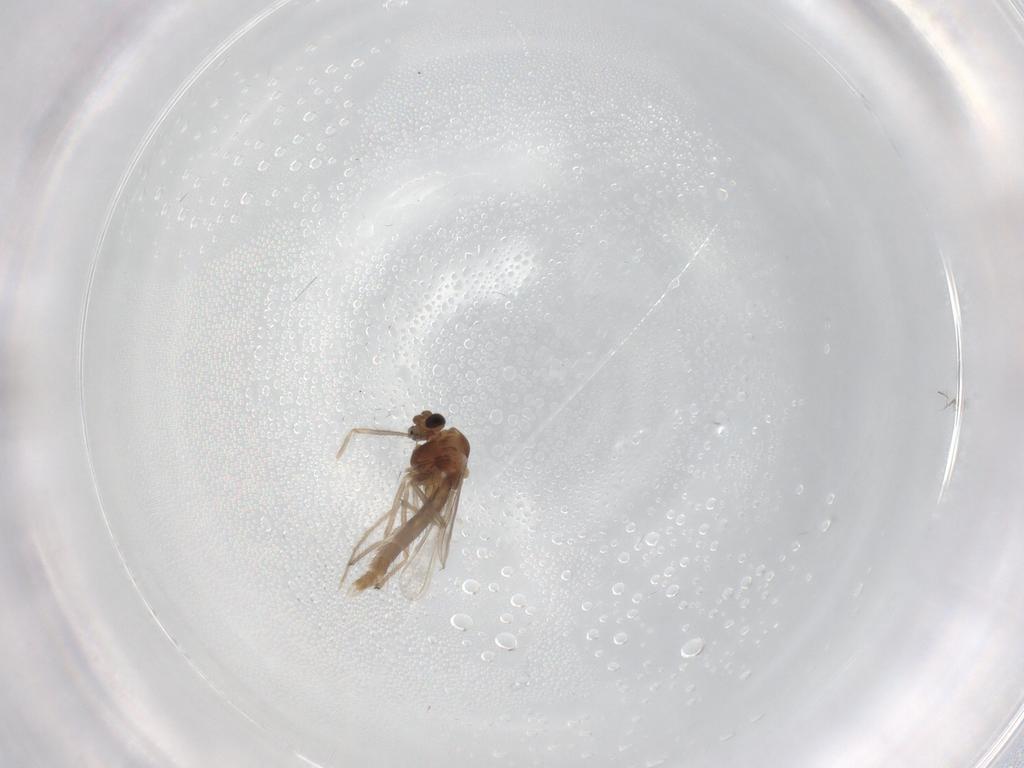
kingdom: Animalia
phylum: Arthropoda
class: Insecta
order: Diptera
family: Chironomidae
